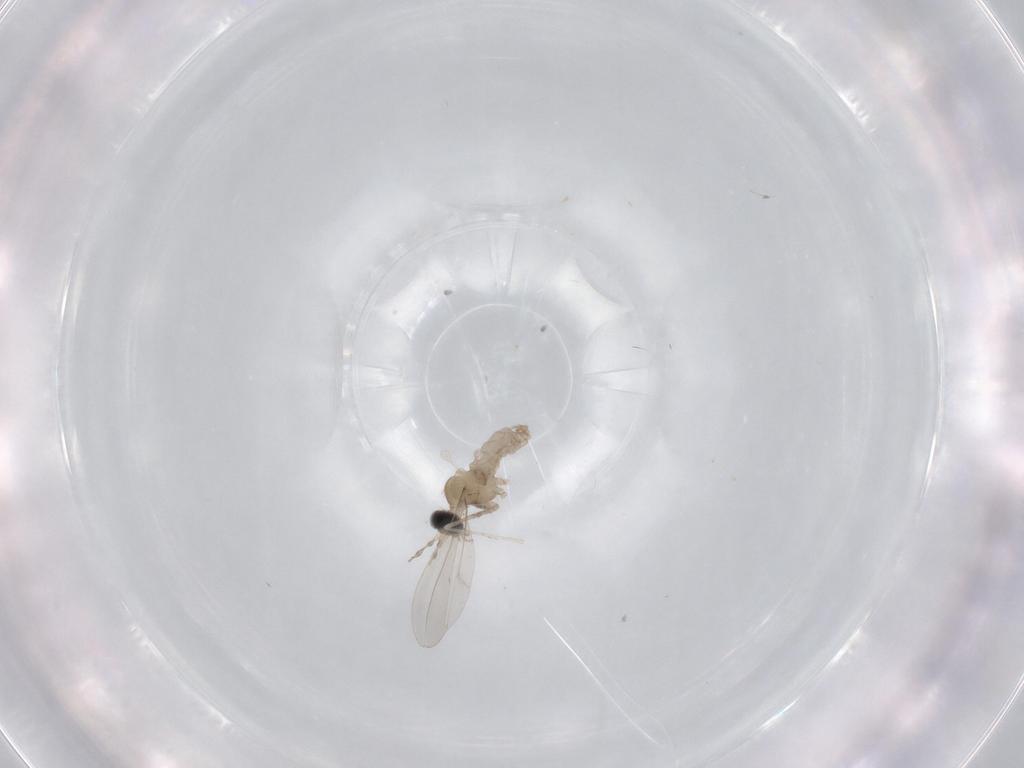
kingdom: Animalia
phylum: Arthropoda
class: Insecta
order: Diptera
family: Cecidomyiidae
